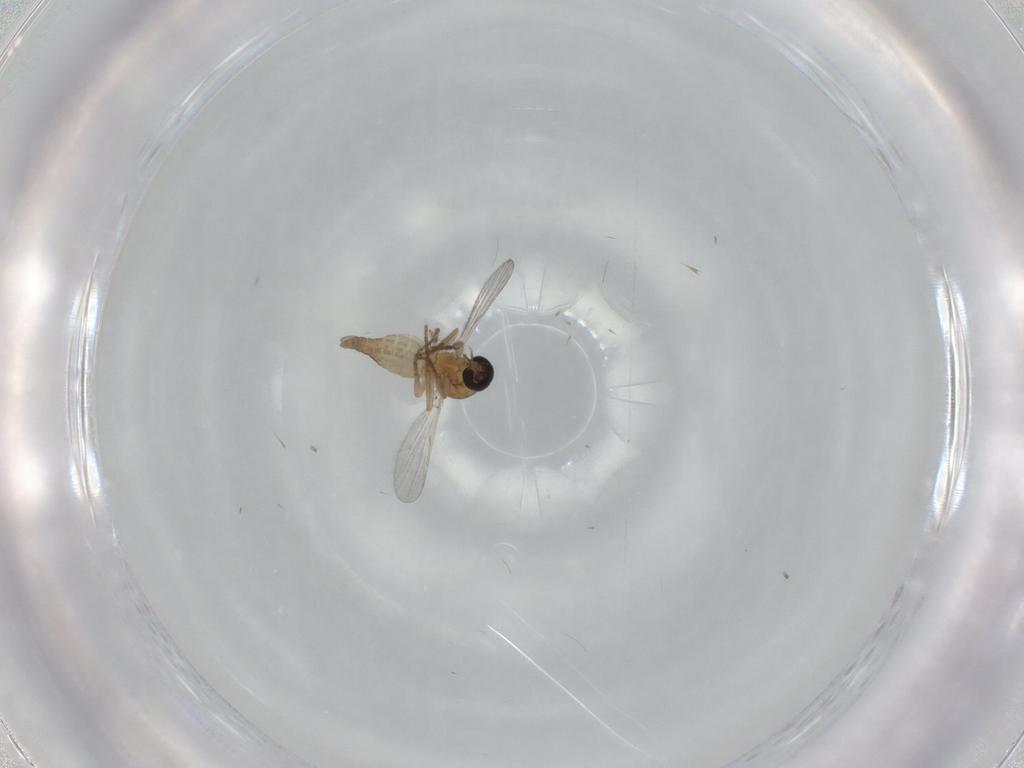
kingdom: Animalia
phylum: Arthropoda
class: Insecta
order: Diptera
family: Ceratopogonidae
